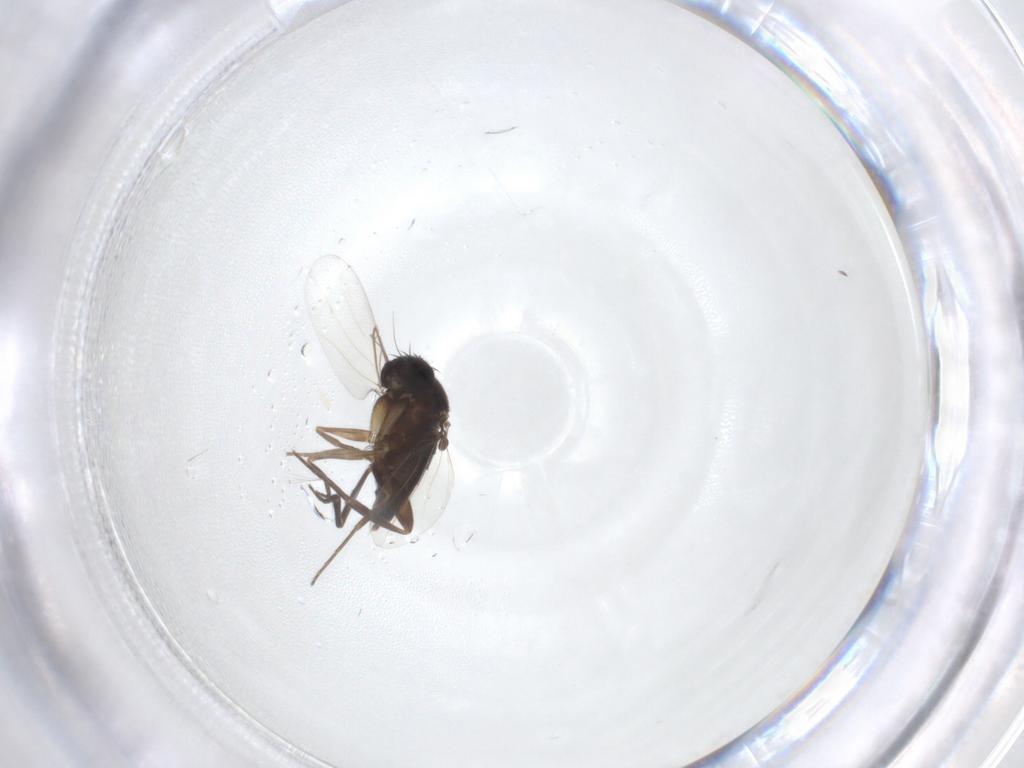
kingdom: Animalia
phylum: Arthropoda
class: Insecta
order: Diptera
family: Phoridae
